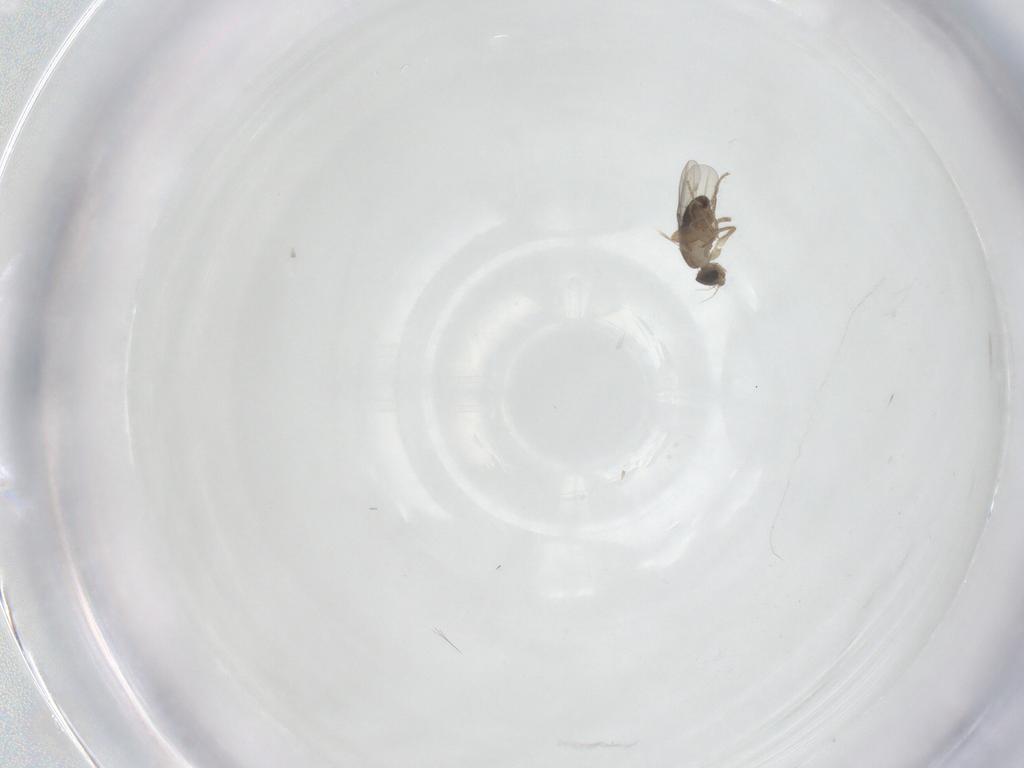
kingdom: Animalia
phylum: Arthropoda
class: Insecta
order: Diptera
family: Phoridae
